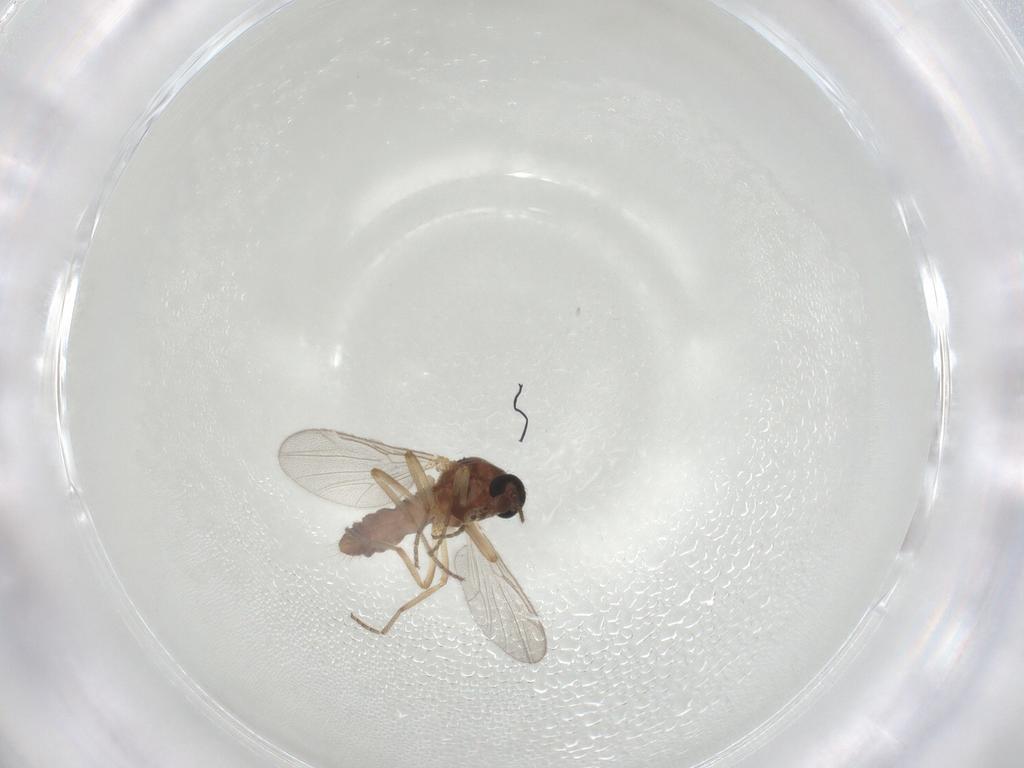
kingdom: Animalia
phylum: Arthropoda
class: Insecta
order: Diptera
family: Ceratopogonidae
